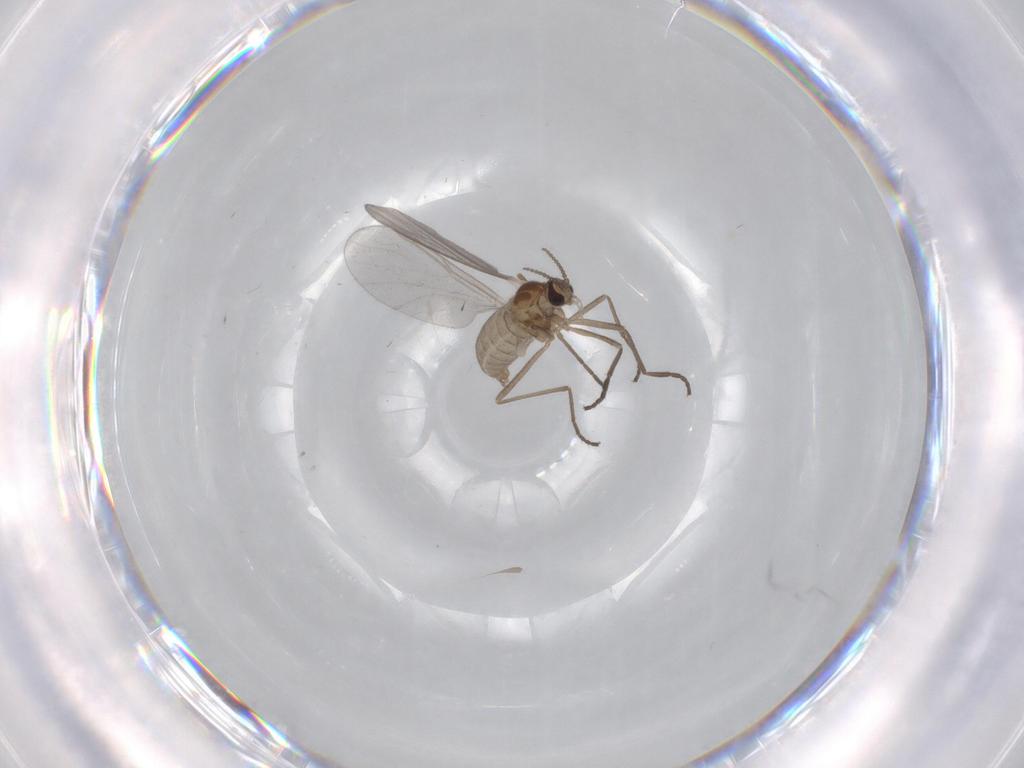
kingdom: Animalia
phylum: Arthropoda
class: Insecta
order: Diptera
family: Cecidomyiidae
